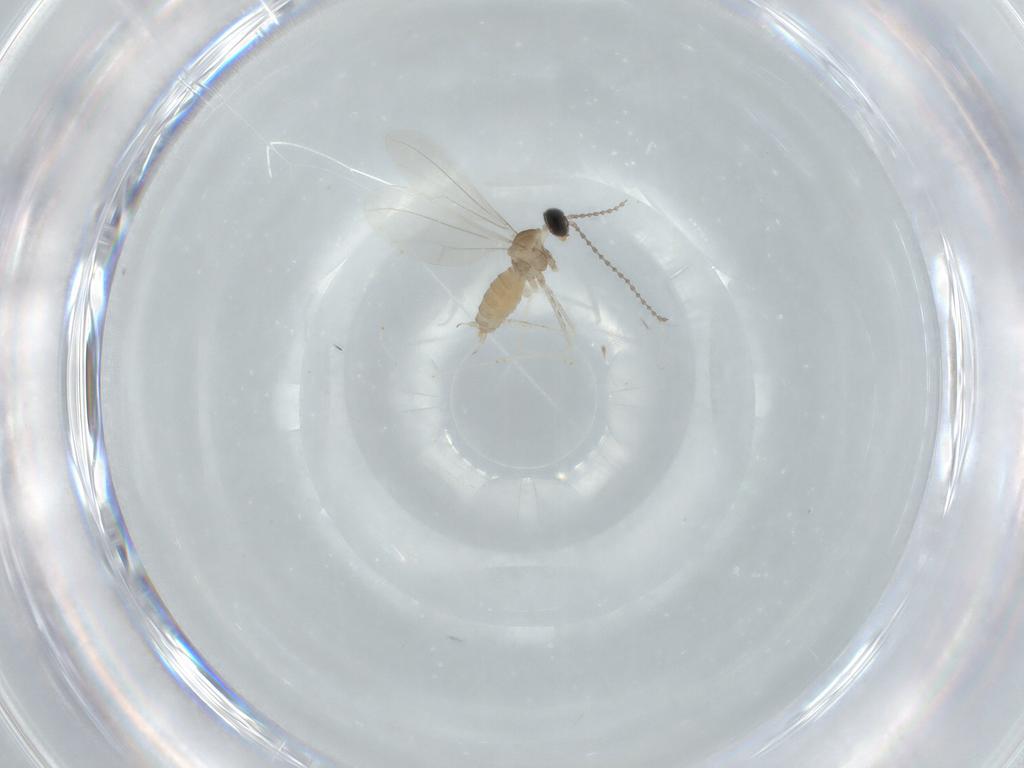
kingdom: Animalia
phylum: Arthropoda
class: Insecta
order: Diptera
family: Cecidomyiidae
